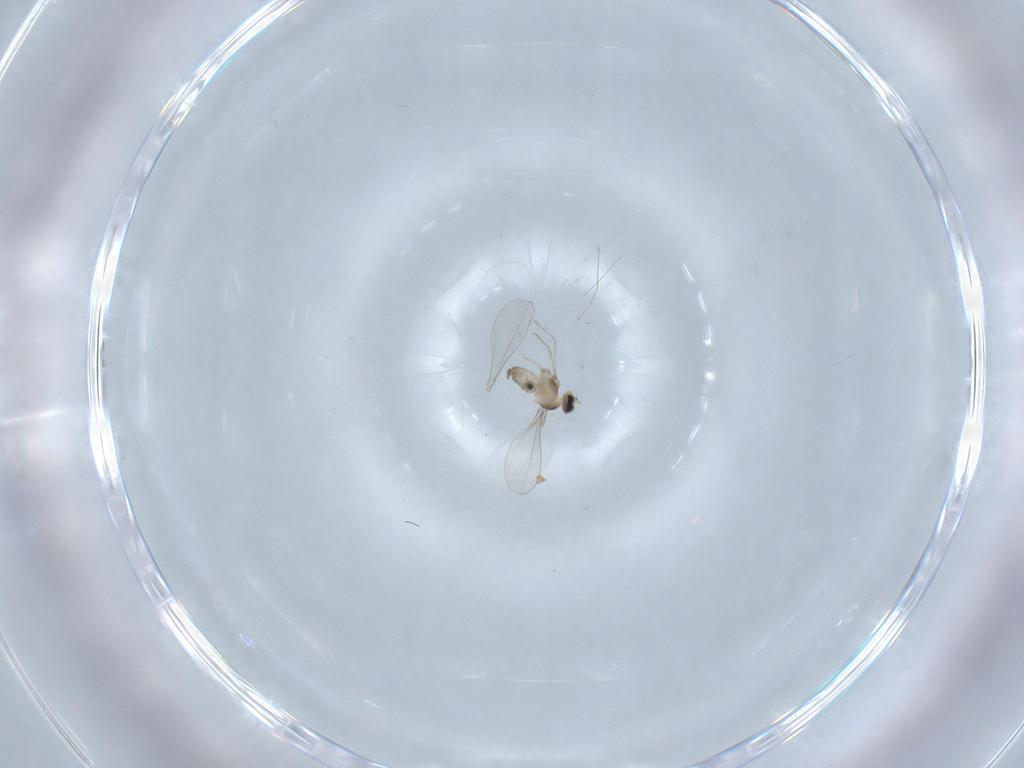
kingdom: Animalia
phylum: Arthropoda
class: Insecta
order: Diptera
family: Cecidomyiidae
